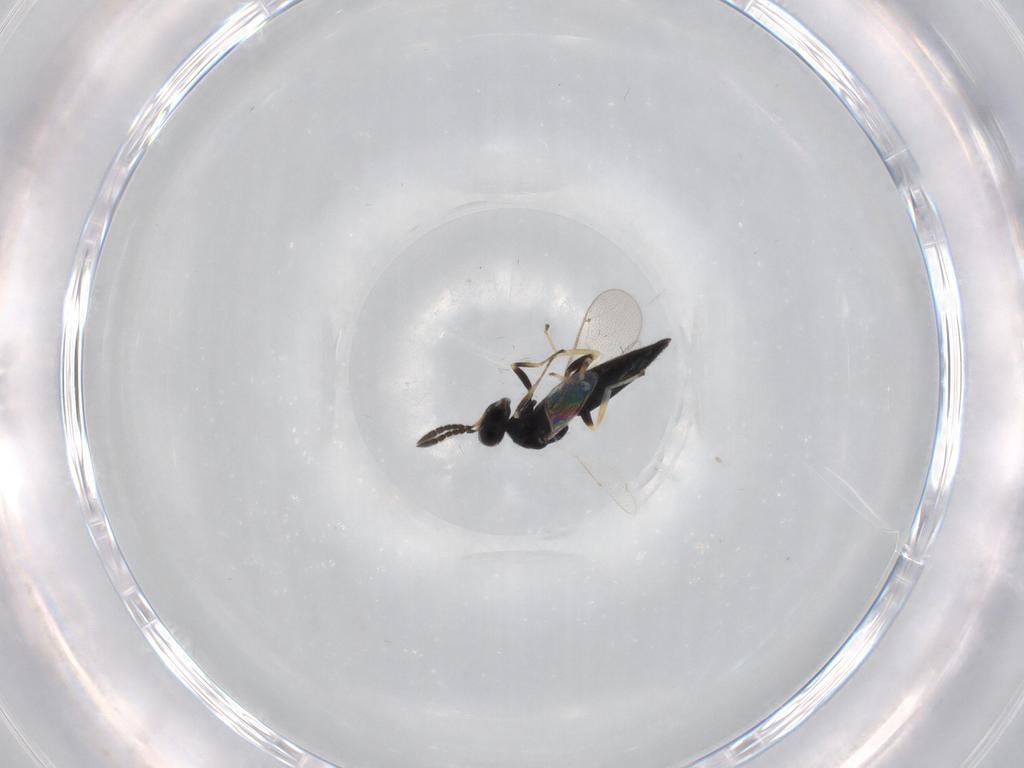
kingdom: Animalia
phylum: Arthropoda
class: Insecta
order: Hymenoptera
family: Eulophidae
